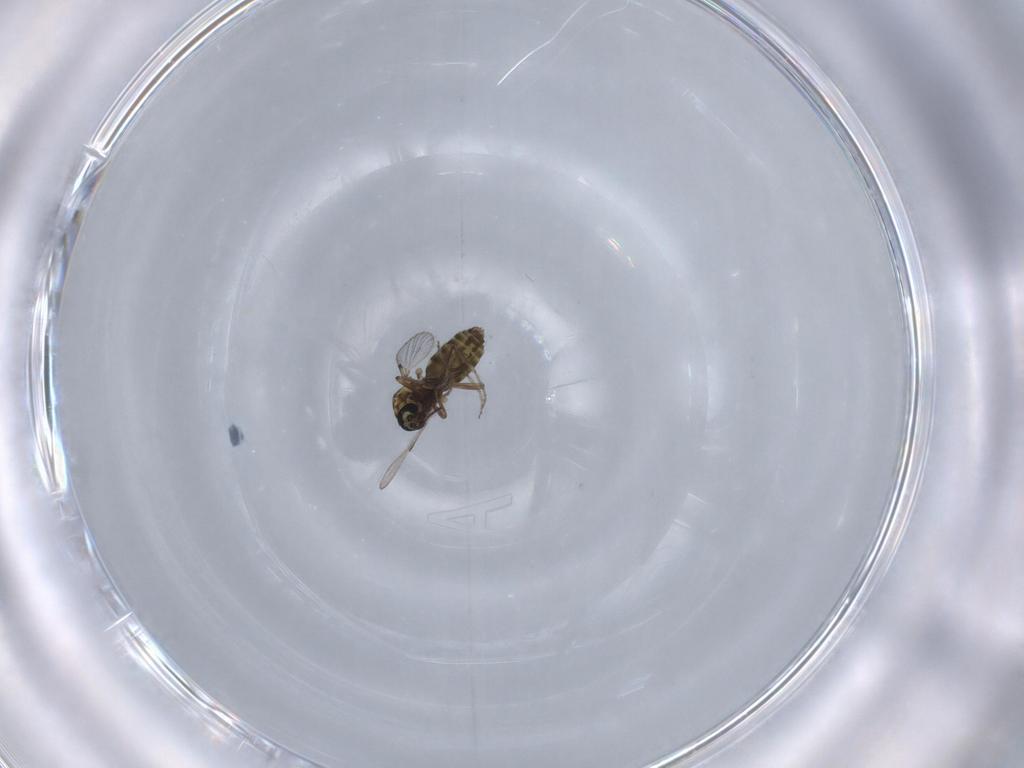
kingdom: Animalia
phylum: Arthropoda
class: Insecta
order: Diptera
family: Ceratopogonidae
